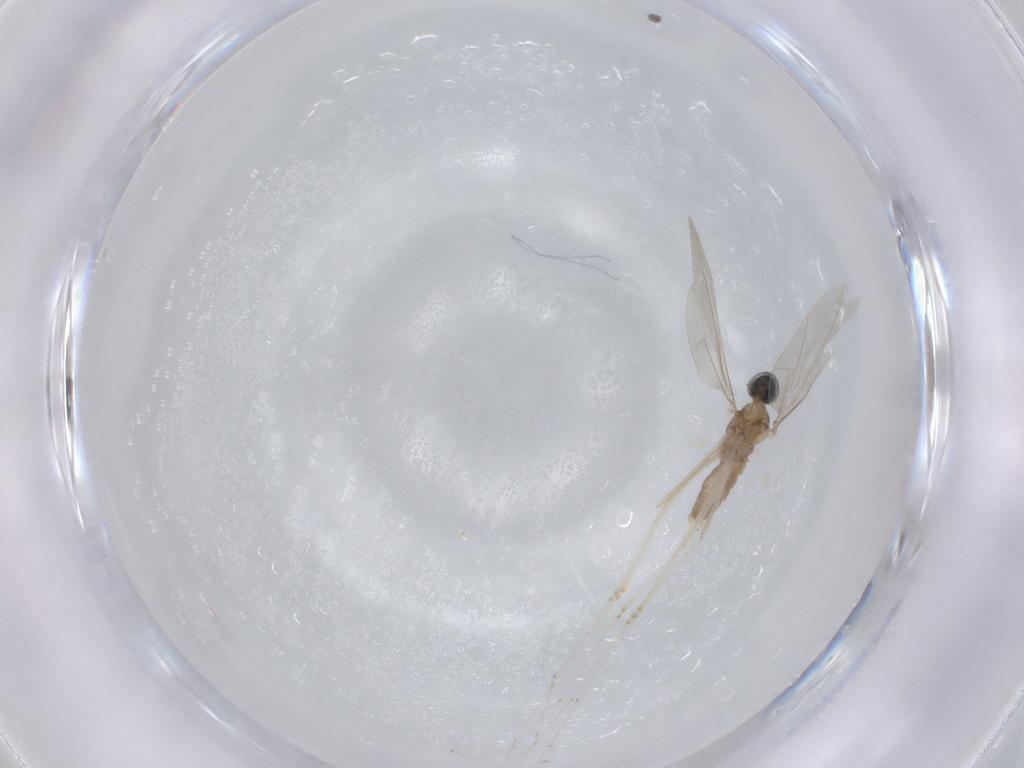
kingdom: Animalia
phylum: Arthropoda
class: Insecta
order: Diptera
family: Cecidomyiidae
